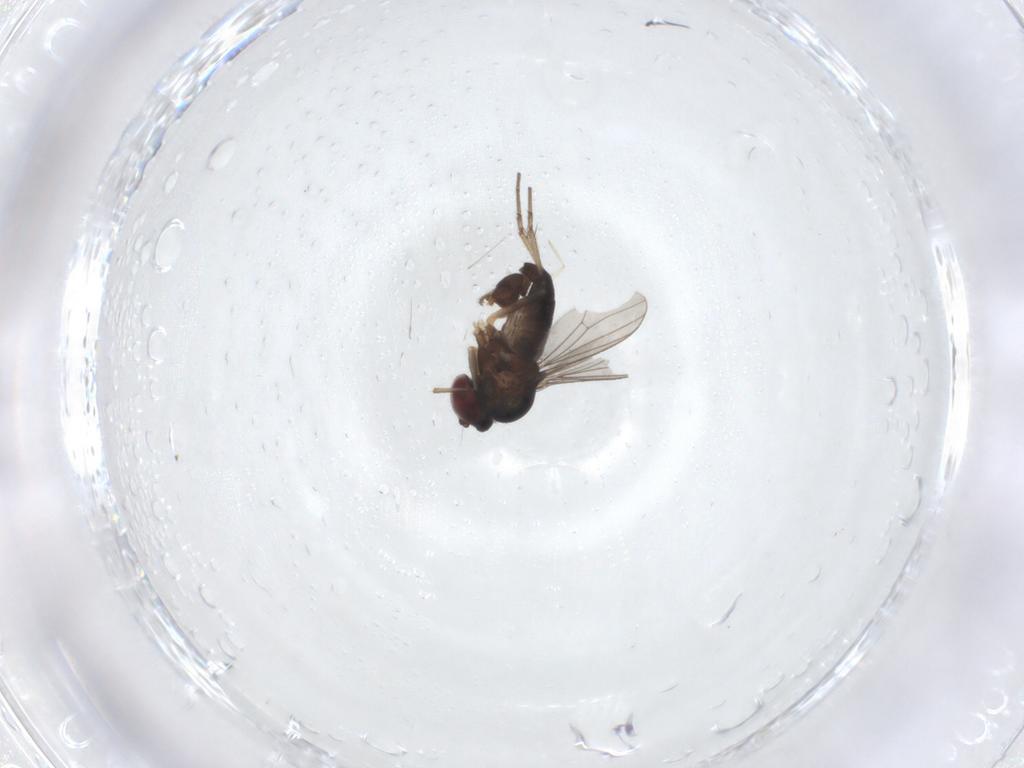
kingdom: Animalia
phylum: Arthropoda
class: Insecta
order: Diptera
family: Dolichopodidae
